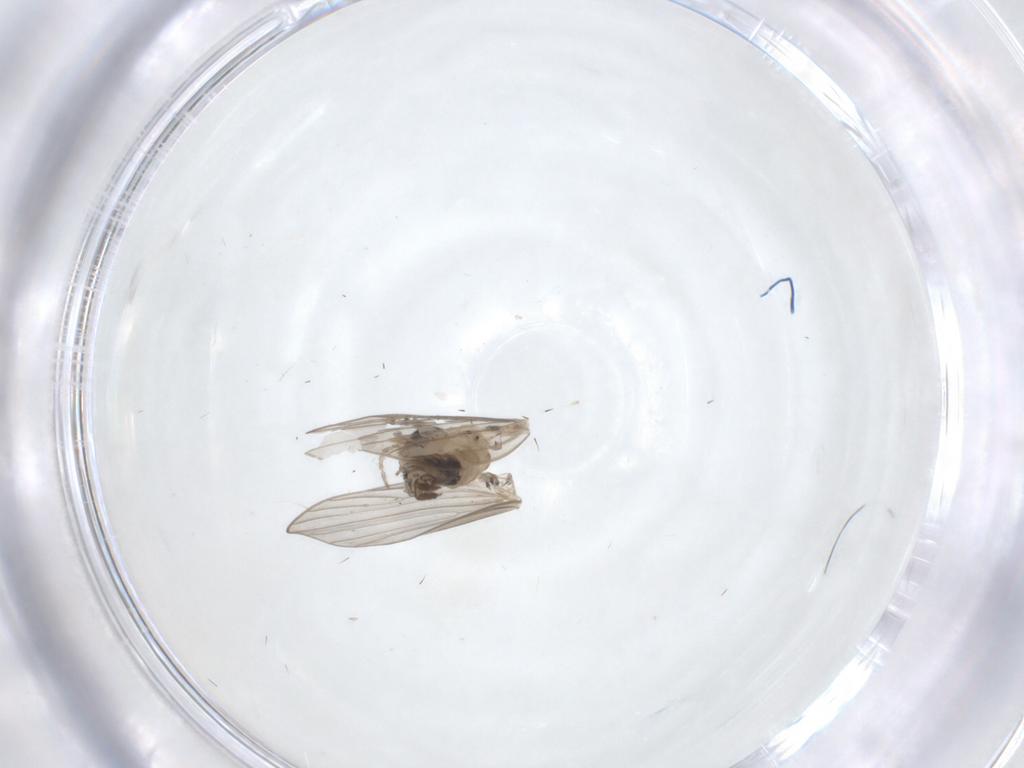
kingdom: Animalia
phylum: Arthropoda
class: Insecta
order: Diptera
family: Psychodidae
